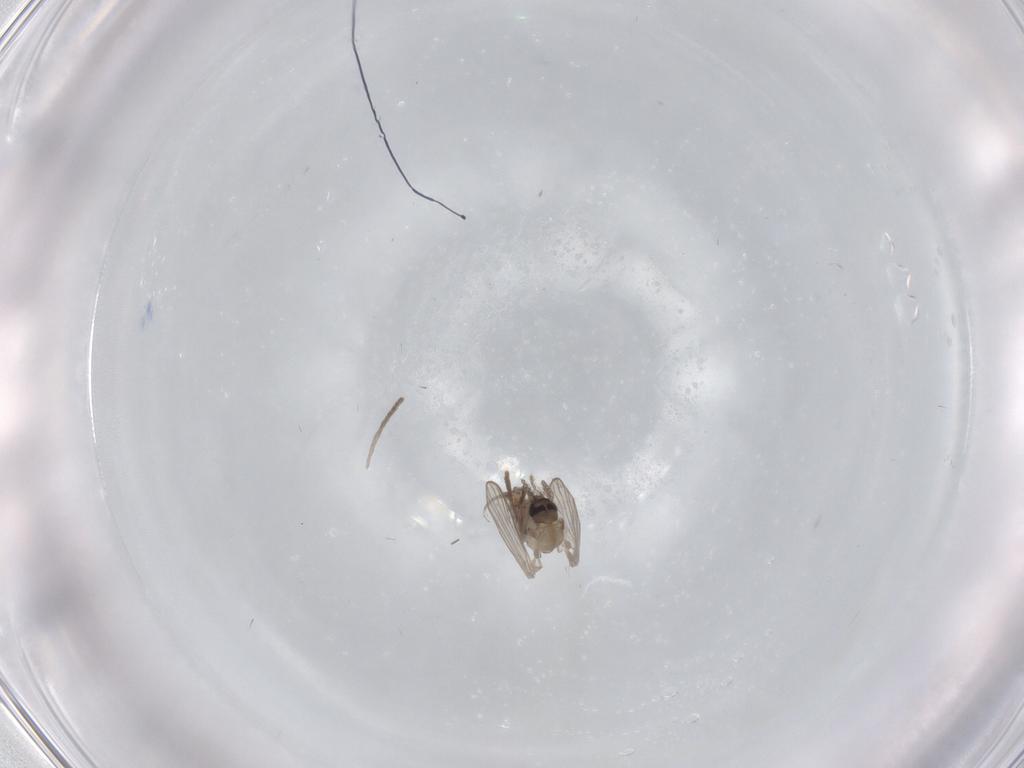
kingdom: Animalia
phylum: Arthropoda
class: Insecta
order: Diptera
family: Psychodidae
